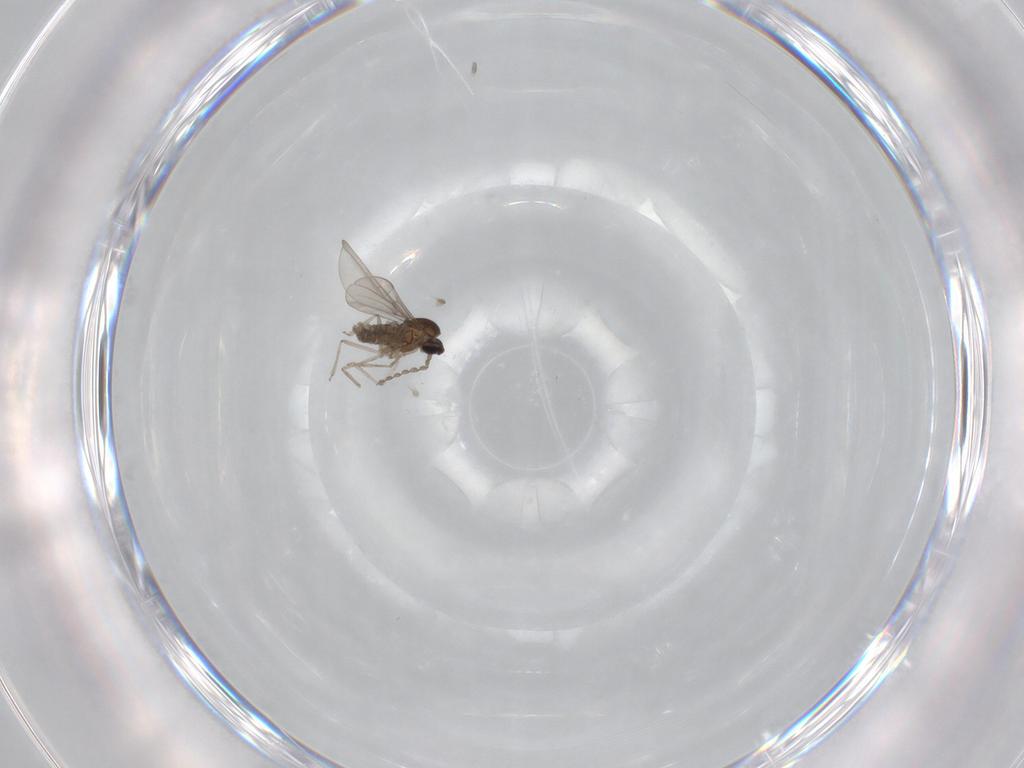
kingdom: Animalia
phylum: Arthropoda
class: Insecta
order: Diptera
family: Cecidomyiidae
